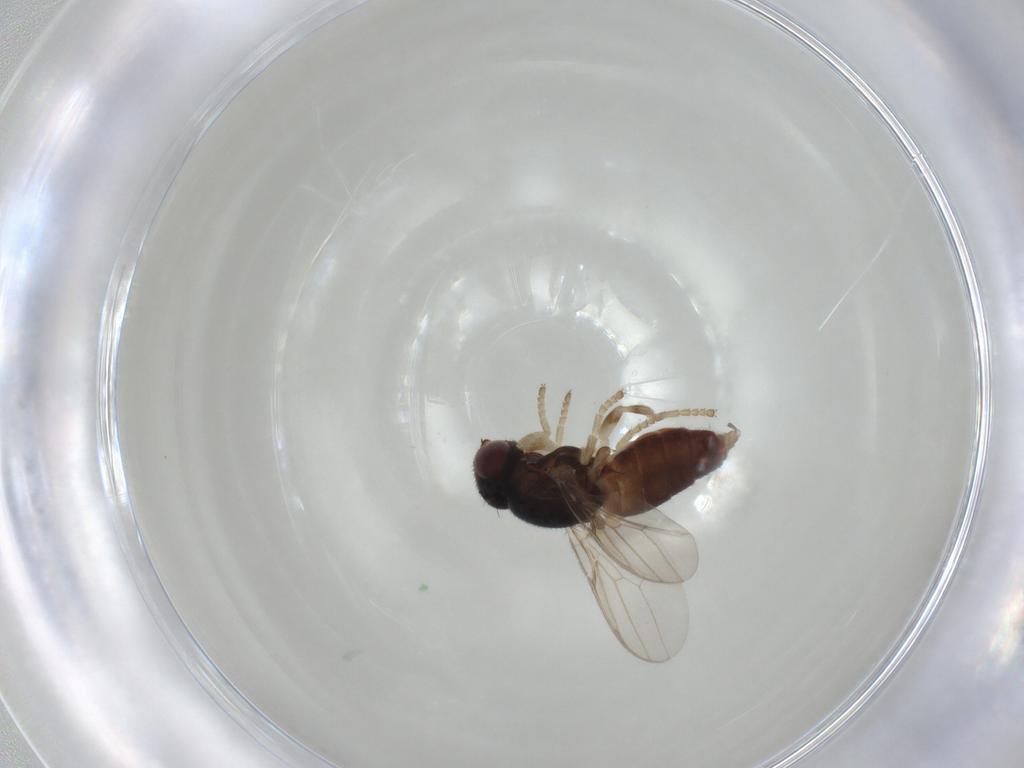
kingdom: Animalia
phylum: Arthropoda
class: Insecta
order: Diptera
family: Chloropidae
